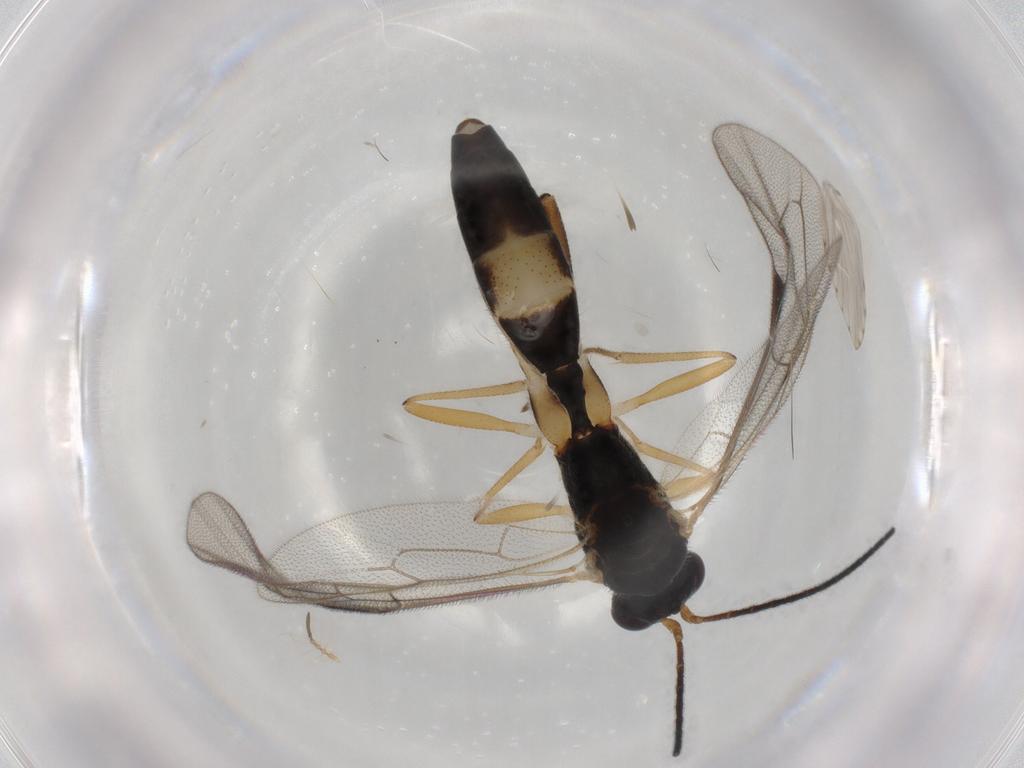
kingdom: Animalia
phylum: Arthropoda
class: Insecta
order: Hymenoptera
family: Ichneumonidae
